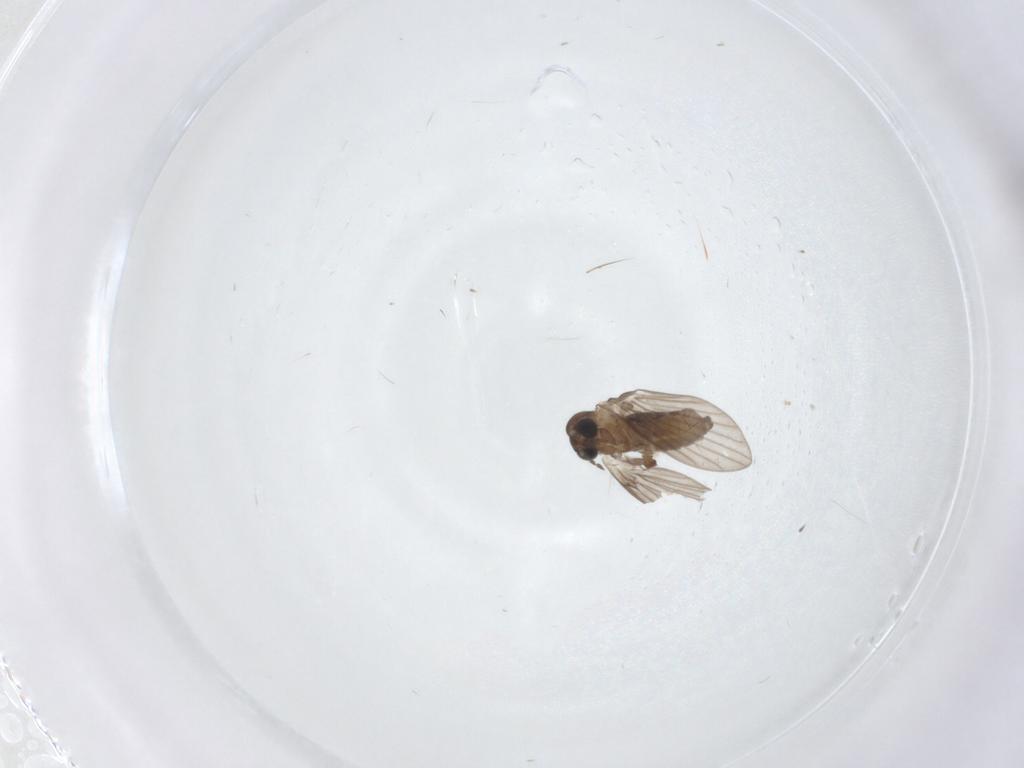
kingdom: Animalia
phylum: Arthropoda
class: Insecta
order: Diptera
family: Psychodidae
